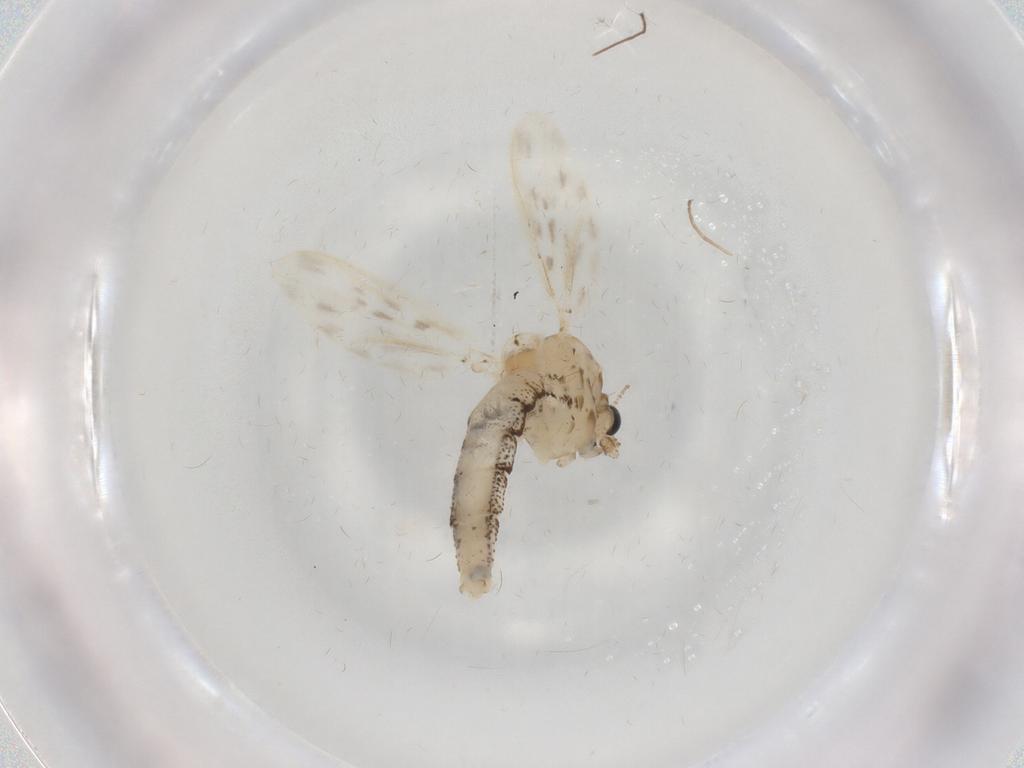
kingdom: Animalia
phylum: Arthropoda
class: Insecta
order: Diptera
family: Chaoboridae
